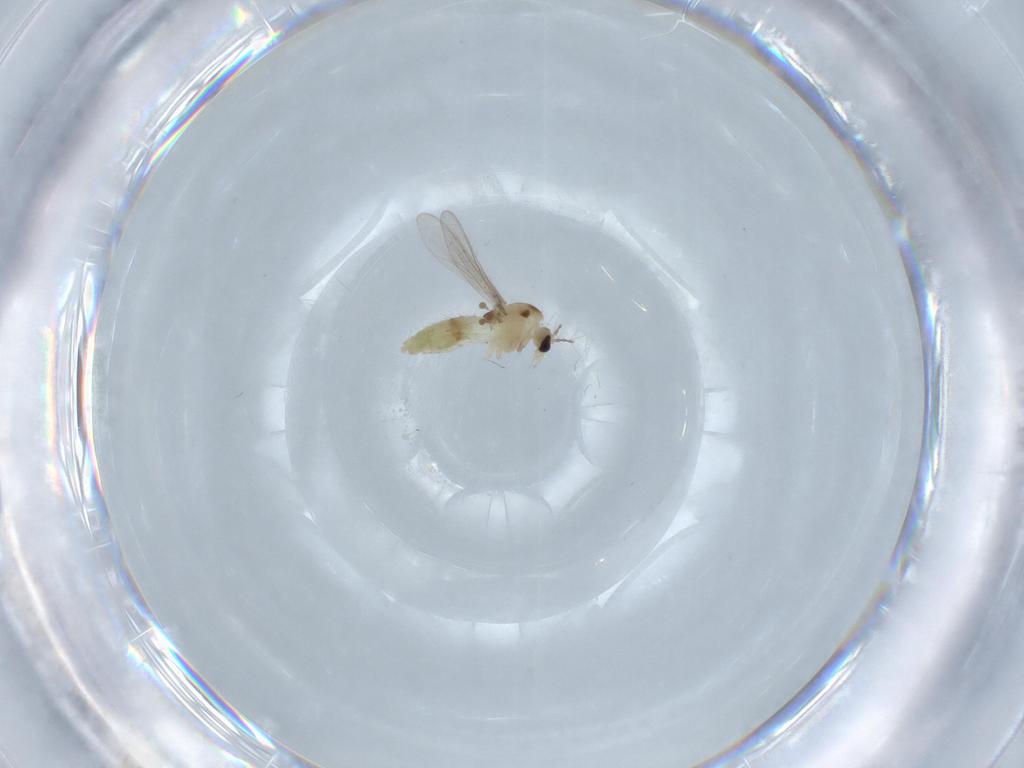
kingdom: Animalia
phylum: Arthropoda
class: Insecta
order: Diptera
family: Chironomidae
